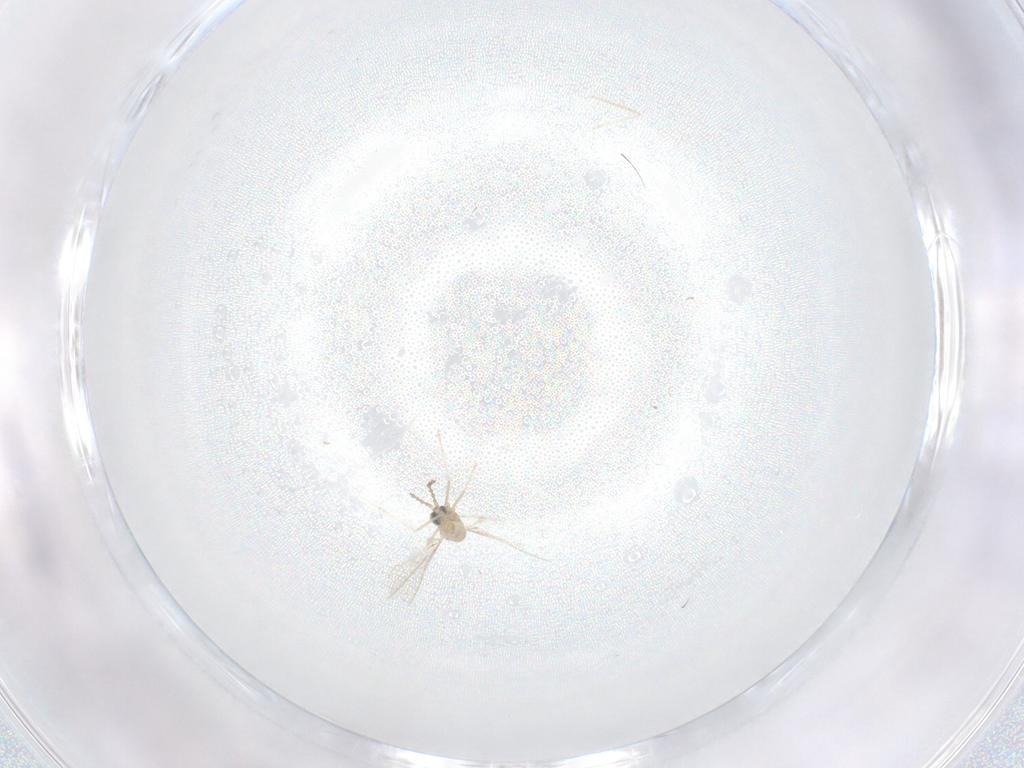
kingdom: Animalia
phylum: Arthropoda
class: Insecta
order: Diptera
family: Cecidomyiidae
